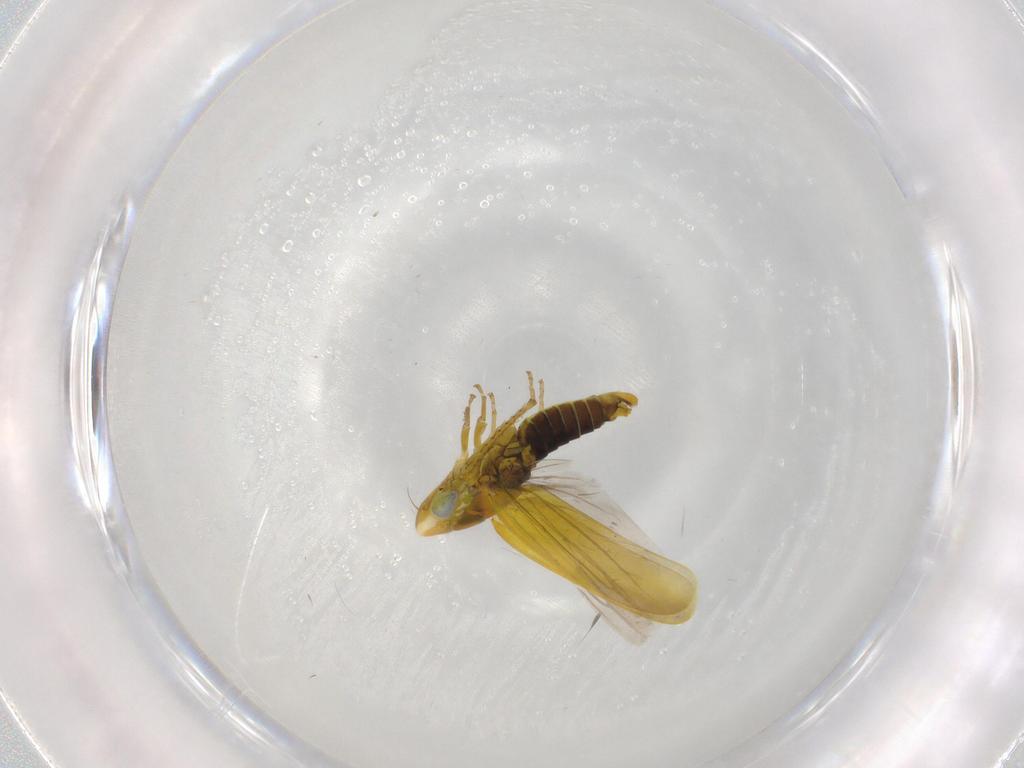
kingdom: Animalia
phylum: Arthropoda
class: Insecta
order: Hemiptera
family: Cicadellidae
